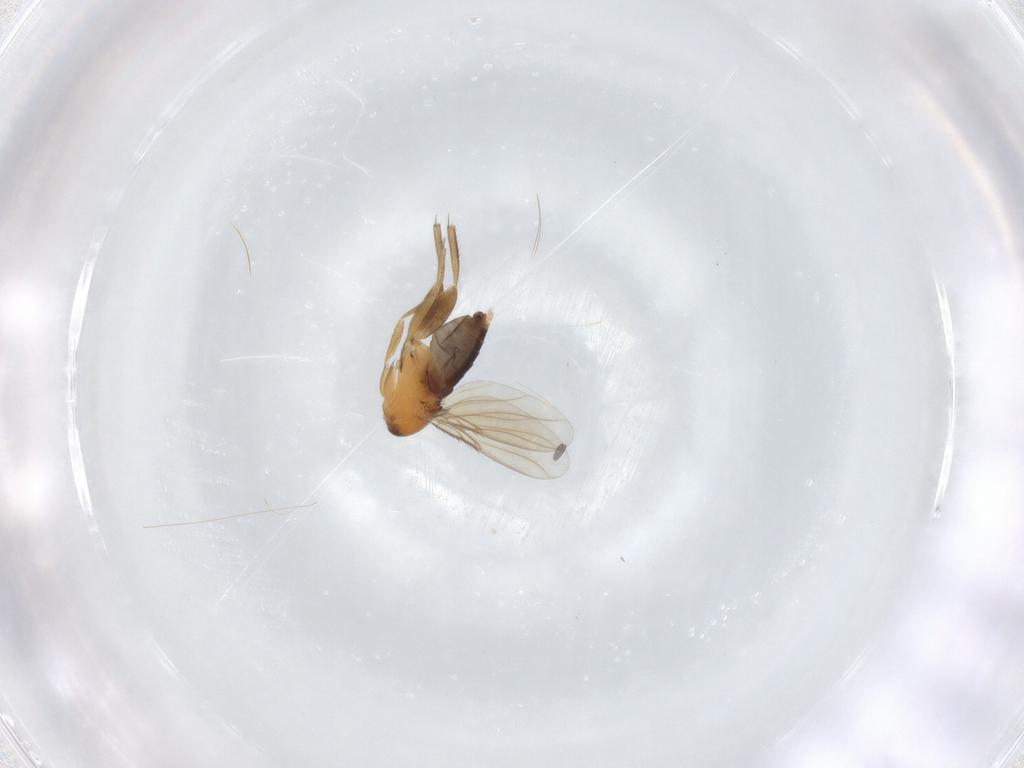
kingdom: Animalia
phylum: Arthropoda
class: Insecta
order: Diptera
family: Phoridae
